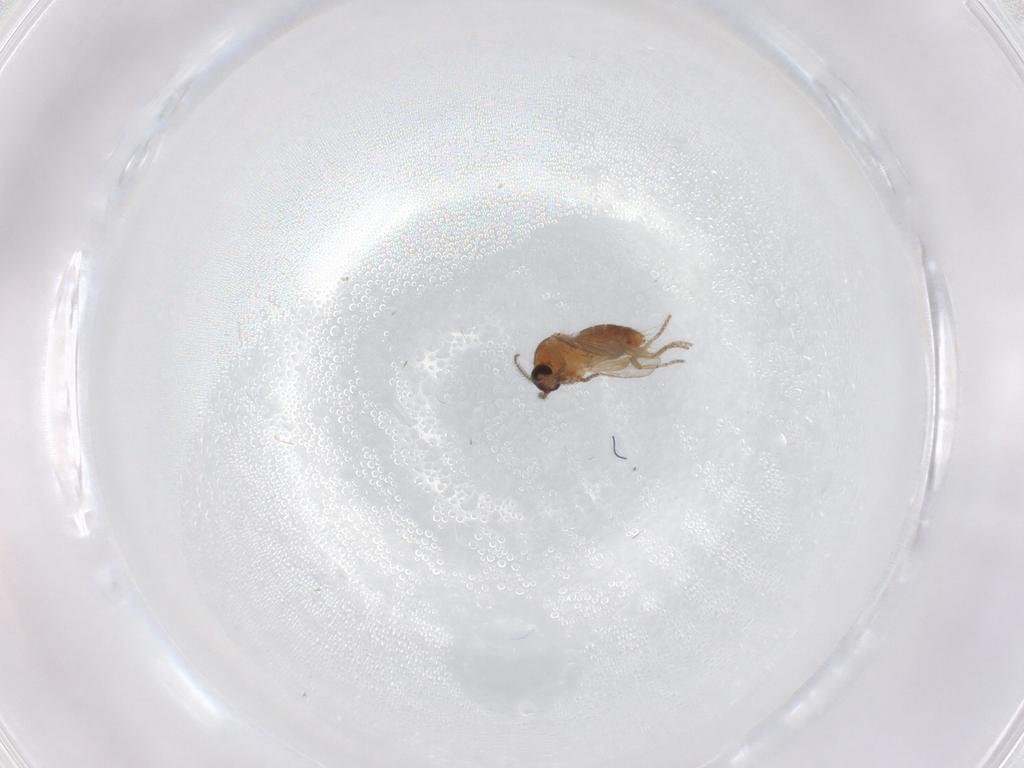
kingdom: Animalia
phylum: Arthropoda
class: Insecta
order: Diptera
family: Ceratopogonidae
